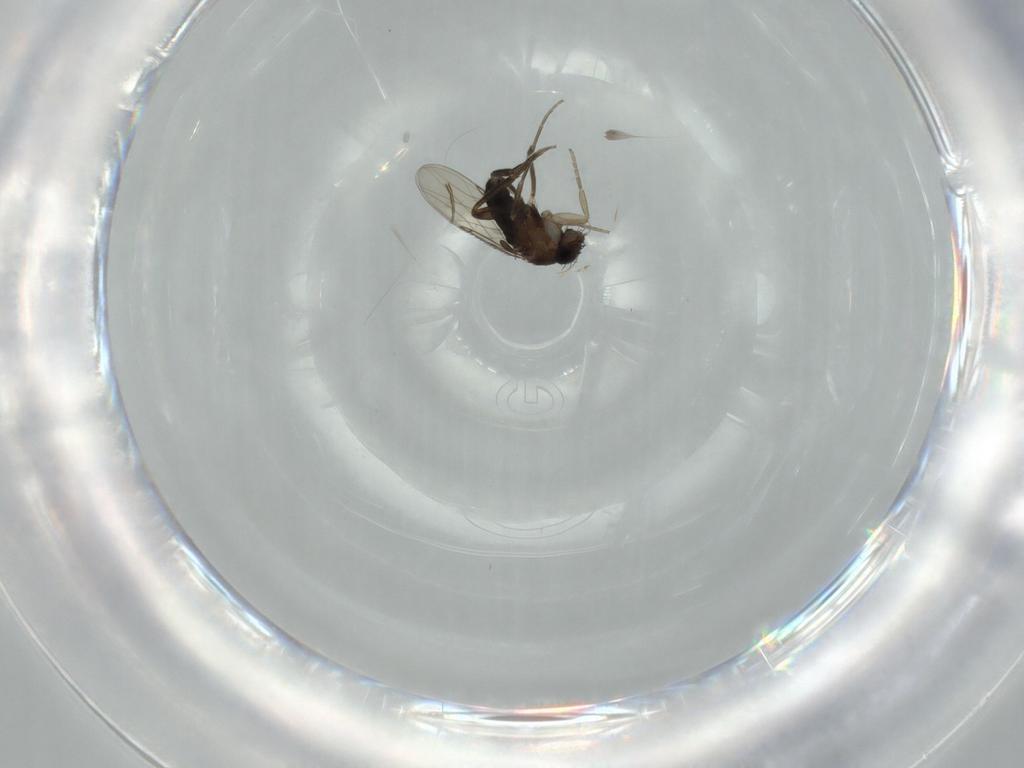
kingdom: Animalia
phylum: Arthropoda
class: Insecta
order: Diptera
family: Phoridae
